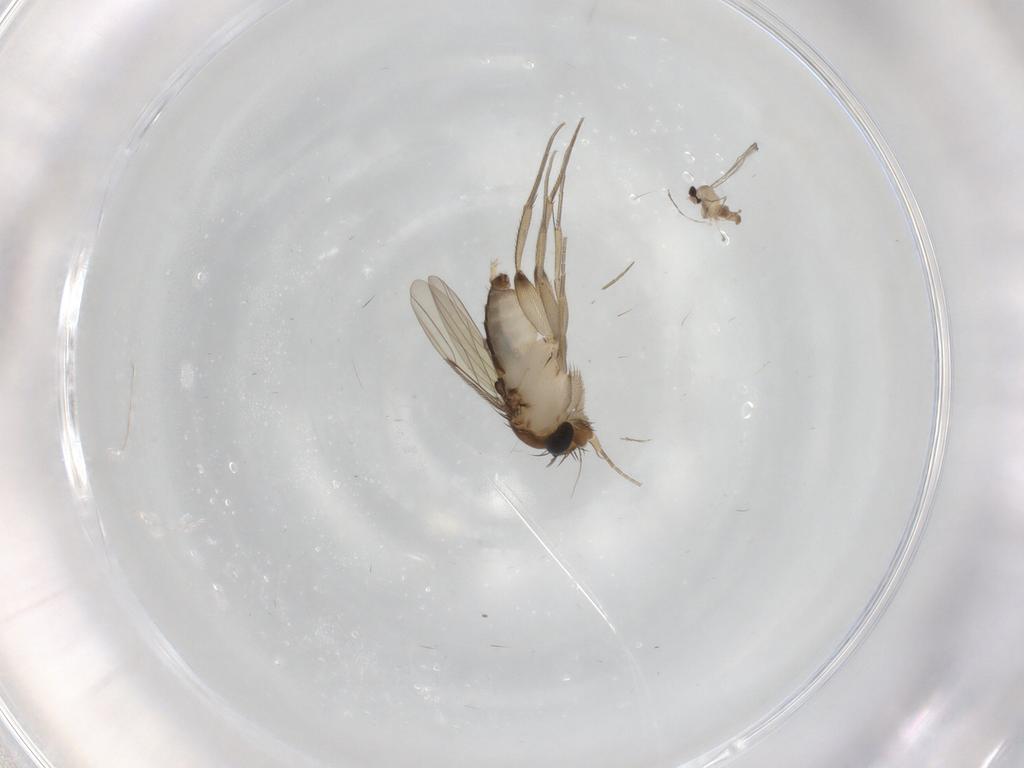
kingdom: Animalia
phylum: Arthropoda
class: Insecta
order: Diptera
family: Phoridae
